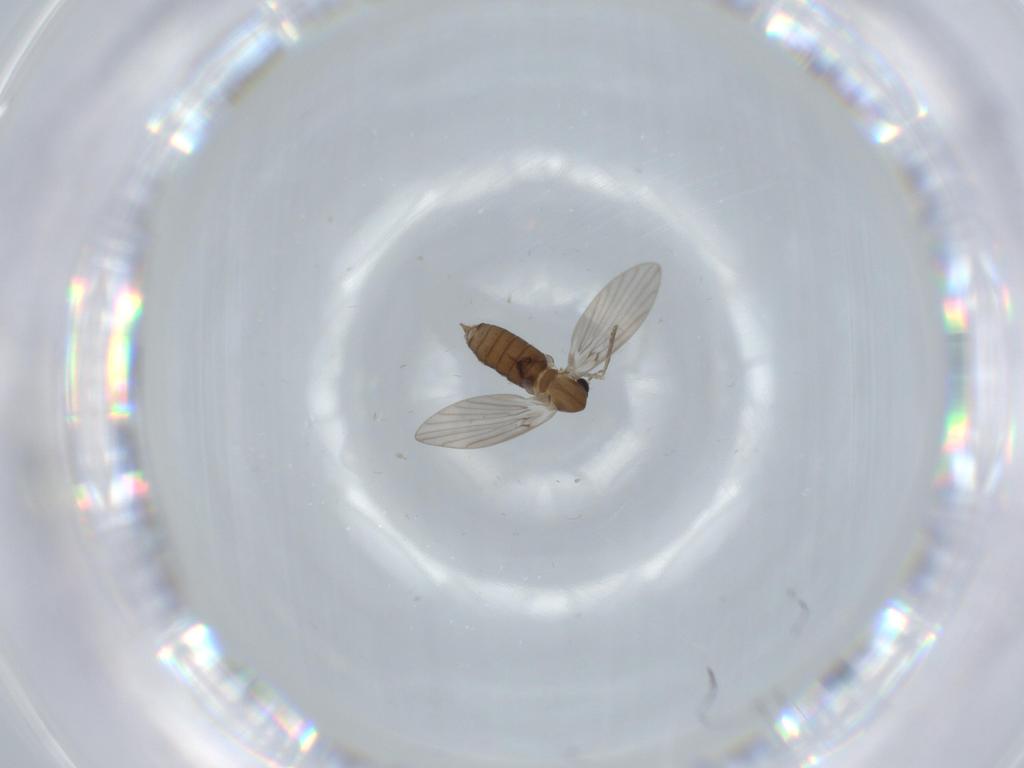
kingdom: Animalia
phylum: Arthropoda
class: Insecta
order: Diptera
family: Psychodidae
